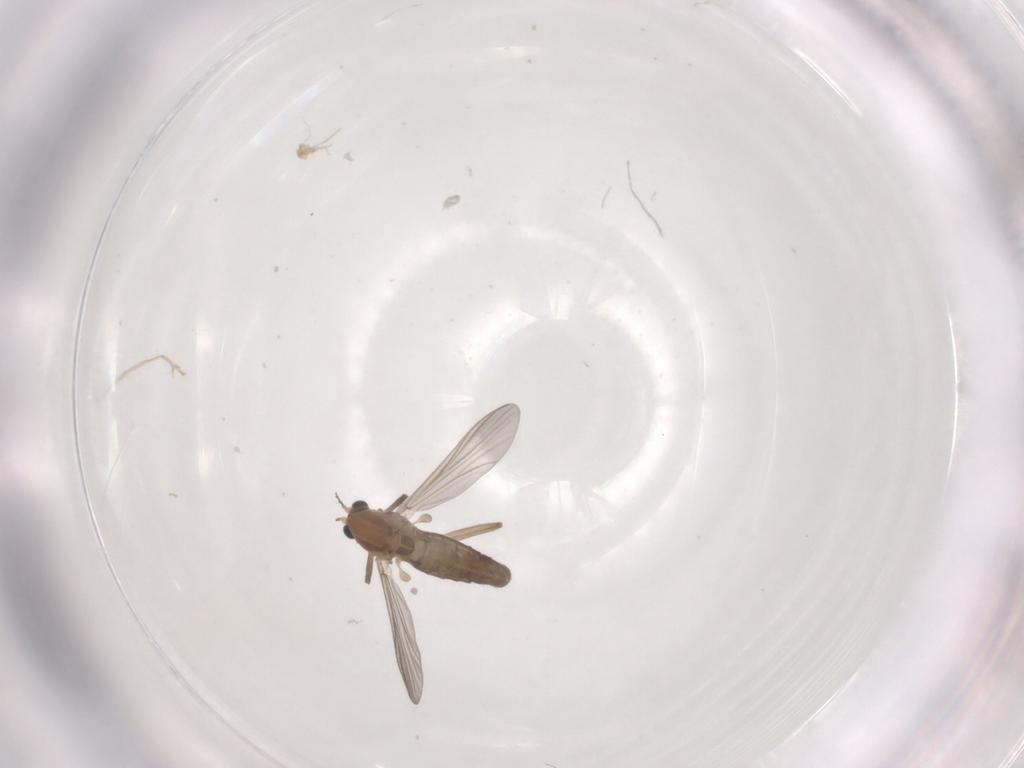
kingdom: Animalia
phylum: Arthropoda
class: Insecta
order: Diptera
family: Chironomidae
